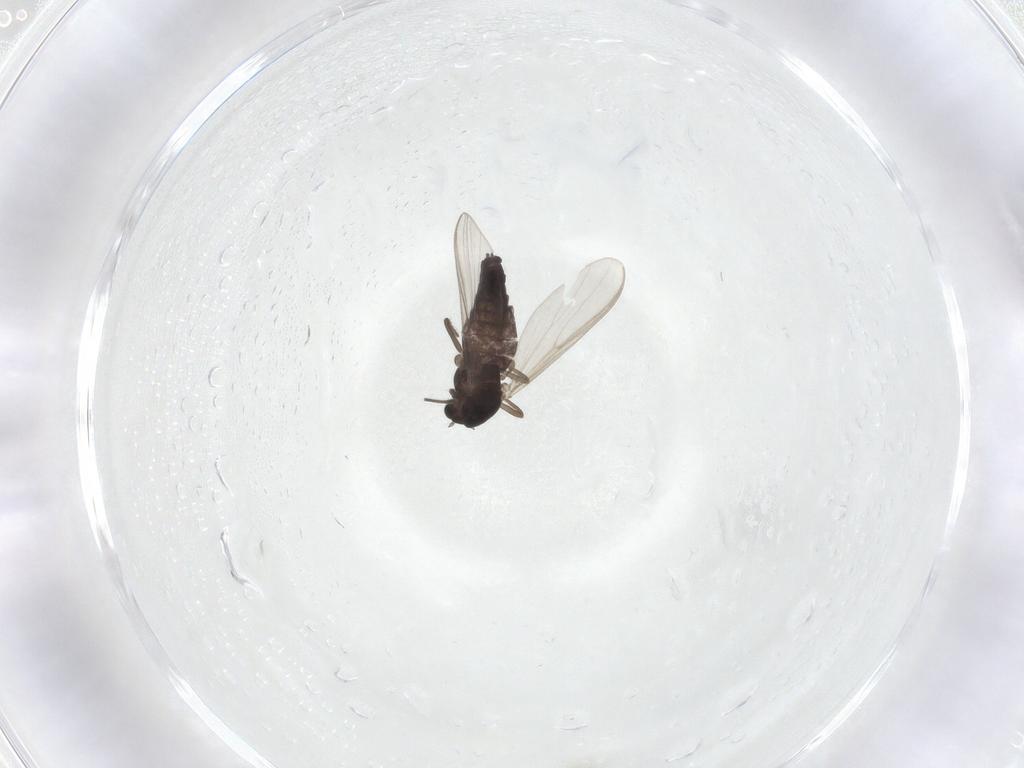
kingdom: Animalia
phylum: Arthropoda
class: Insecta
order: Diptera
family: Chironomidae
